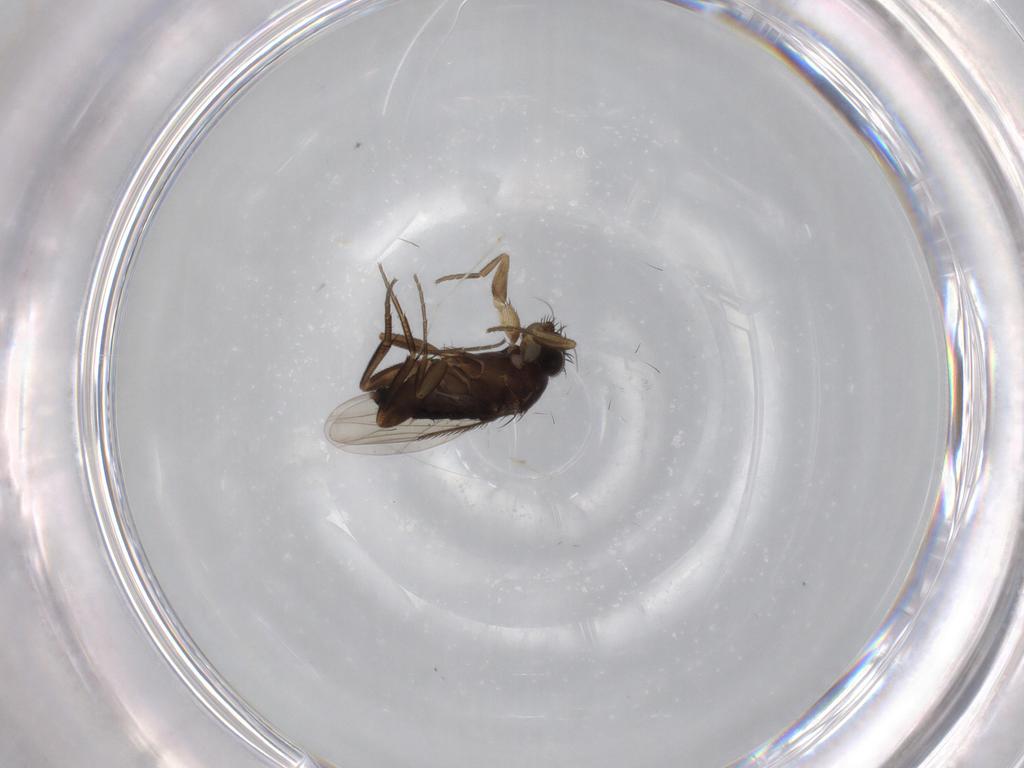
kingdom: Animalia
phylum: Arthropoda
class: Insecta
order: Diptera
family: Phoridae
